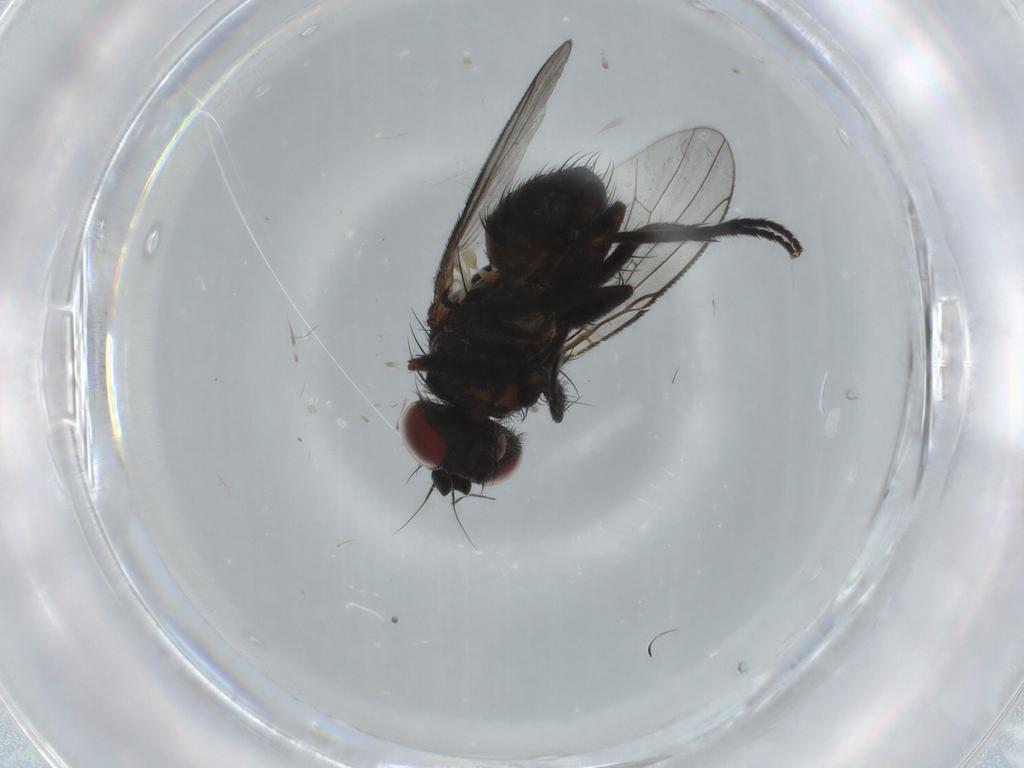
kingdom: Animalia
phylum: Arthropoda
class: Insecta
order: Diptera
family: Muscidae
